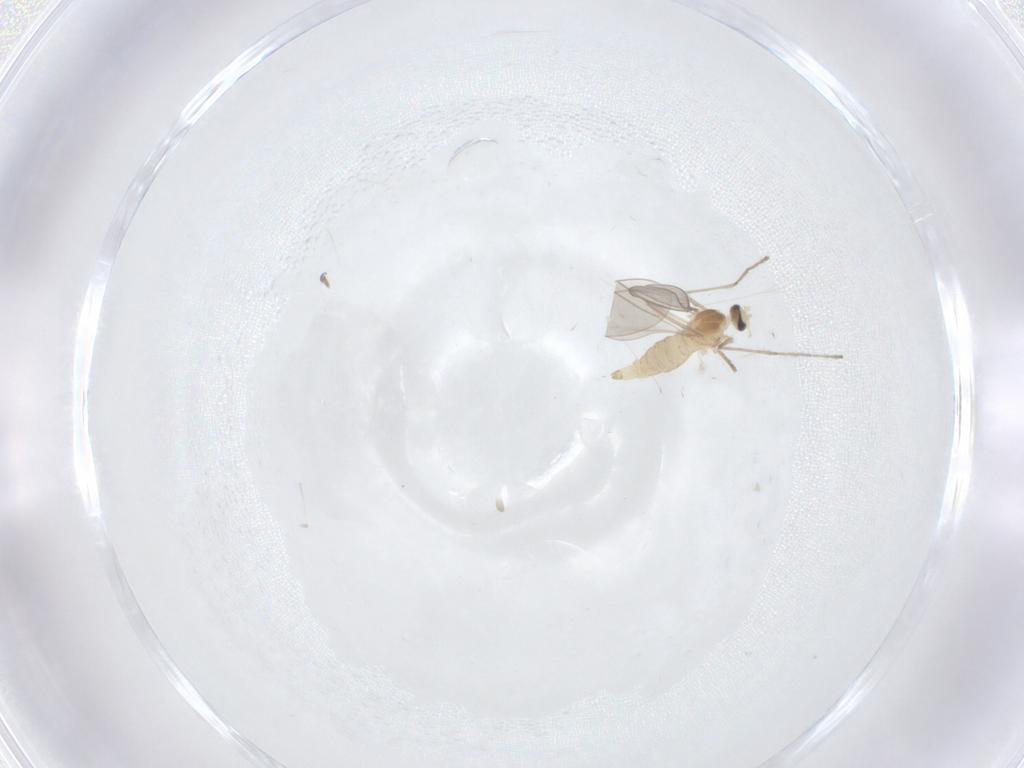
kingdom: Animalia
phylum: Arthropoda
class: Insecta
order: Diptera
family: Cecidomyiidae
